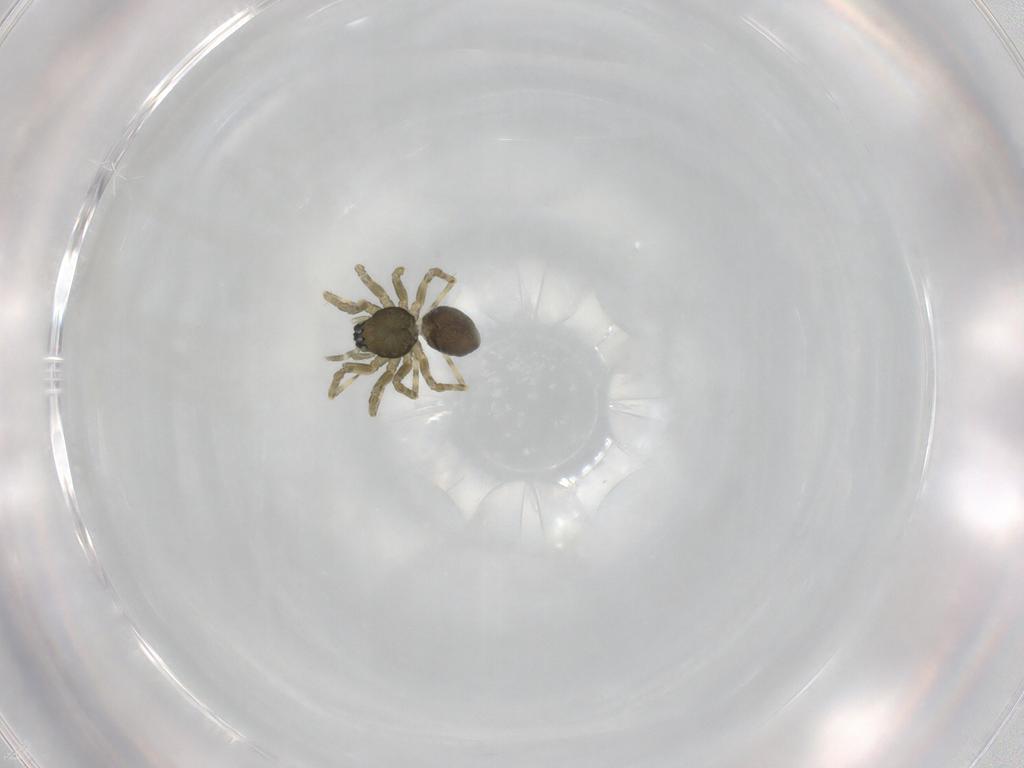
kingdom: Animalia
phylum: Arthropoda
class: Arachnida
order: Araneae
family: Linyphiidae
